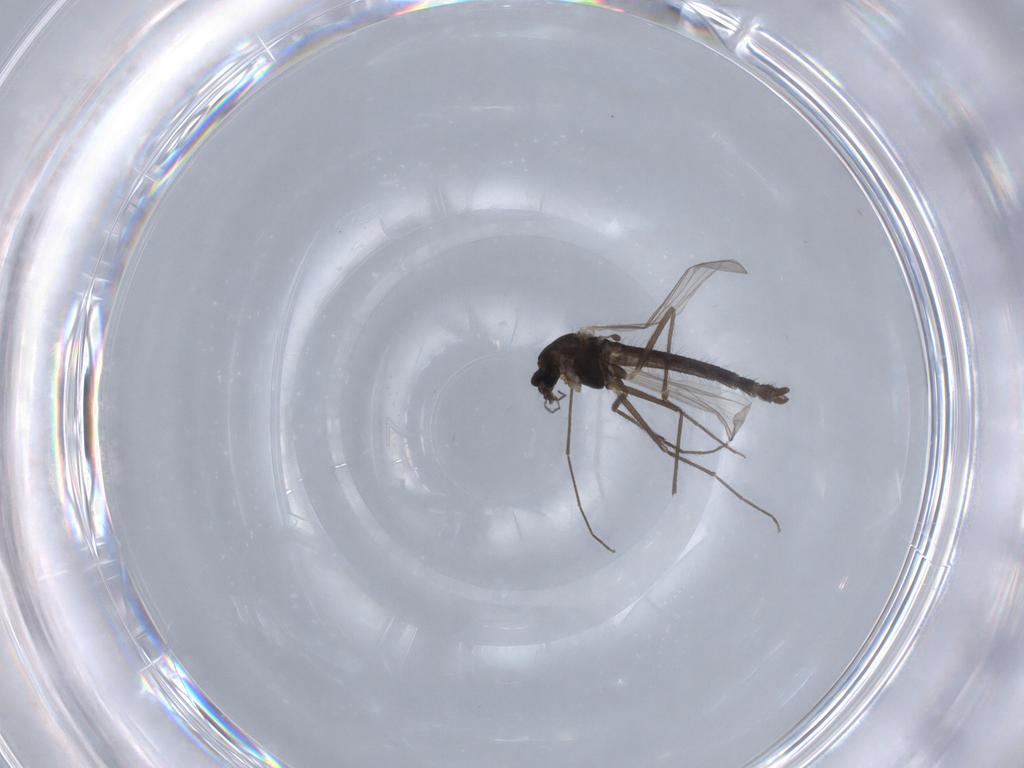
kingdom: Animalia
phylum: Arthropoda
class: Insecta
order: Diptera
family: Chironomidae
